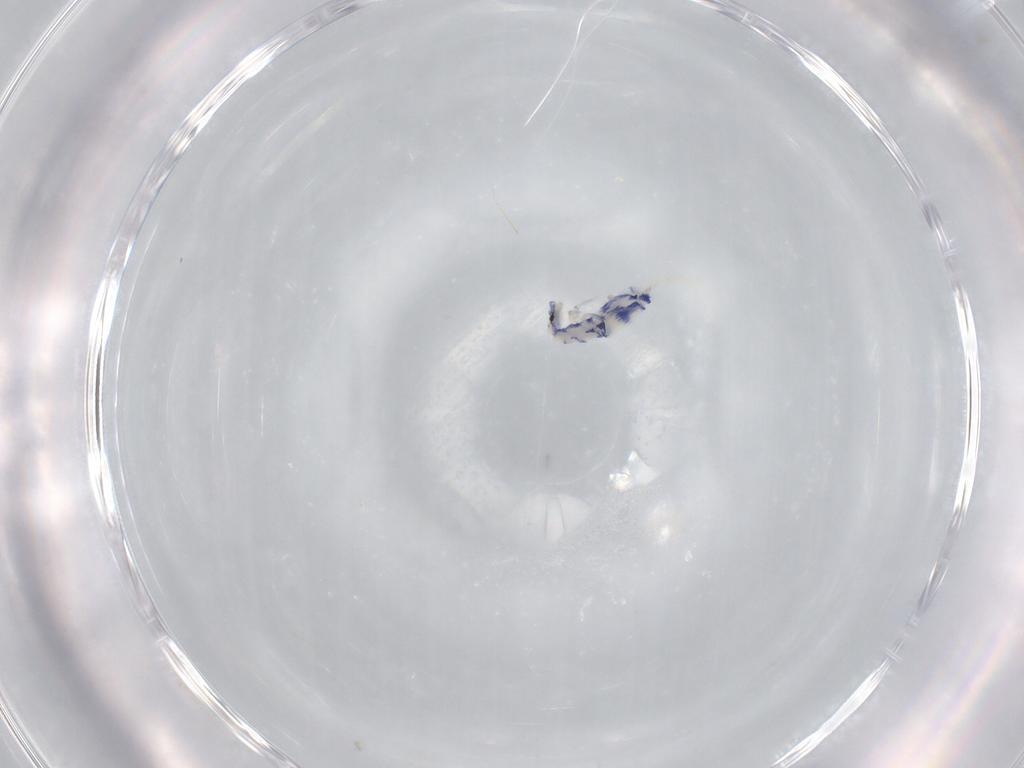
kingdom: Animalia
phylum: Arthropoda
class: Collembola
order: Entomobryomorpha
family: Entomobryidae
